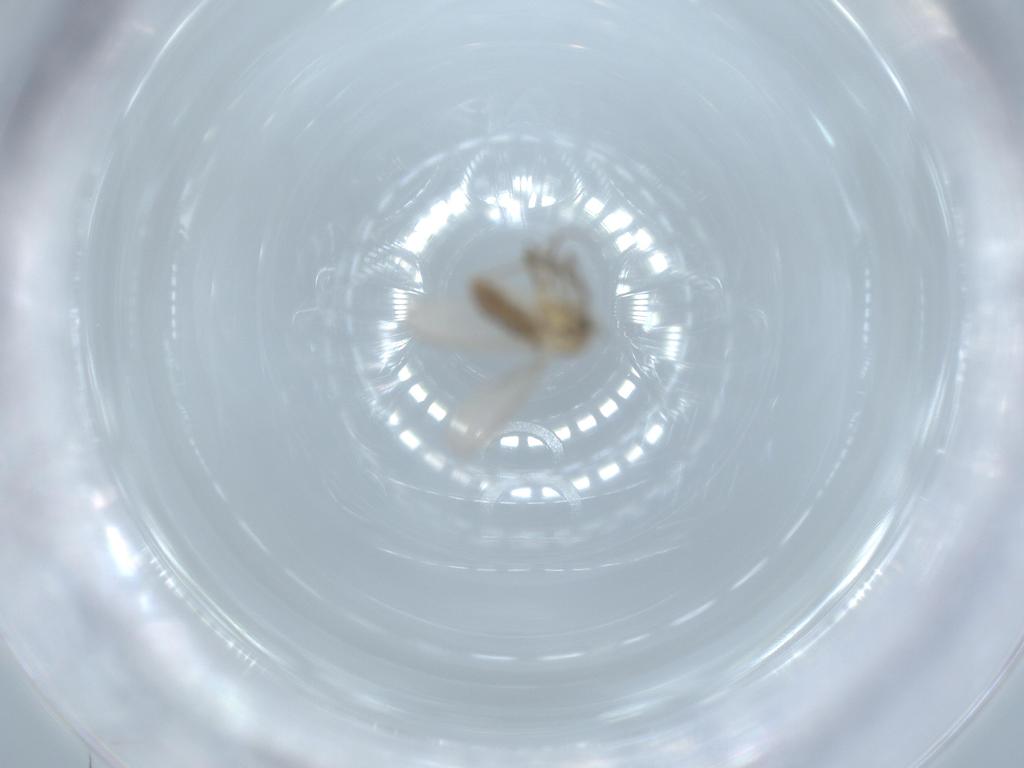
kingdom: Animalia
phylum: Arthropoda
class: Insecta
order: Diptera
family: Chironomidae
